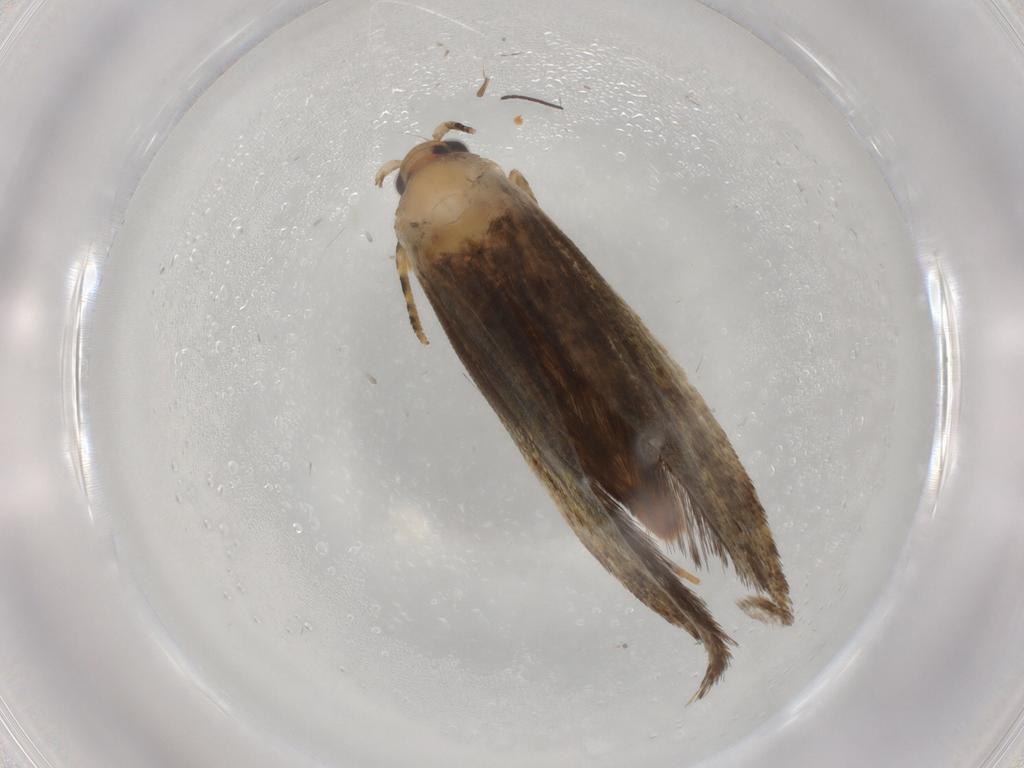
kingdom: Animalia
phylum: Arthropoda
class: Insecta
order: Lepidoptera
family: Tineidae
